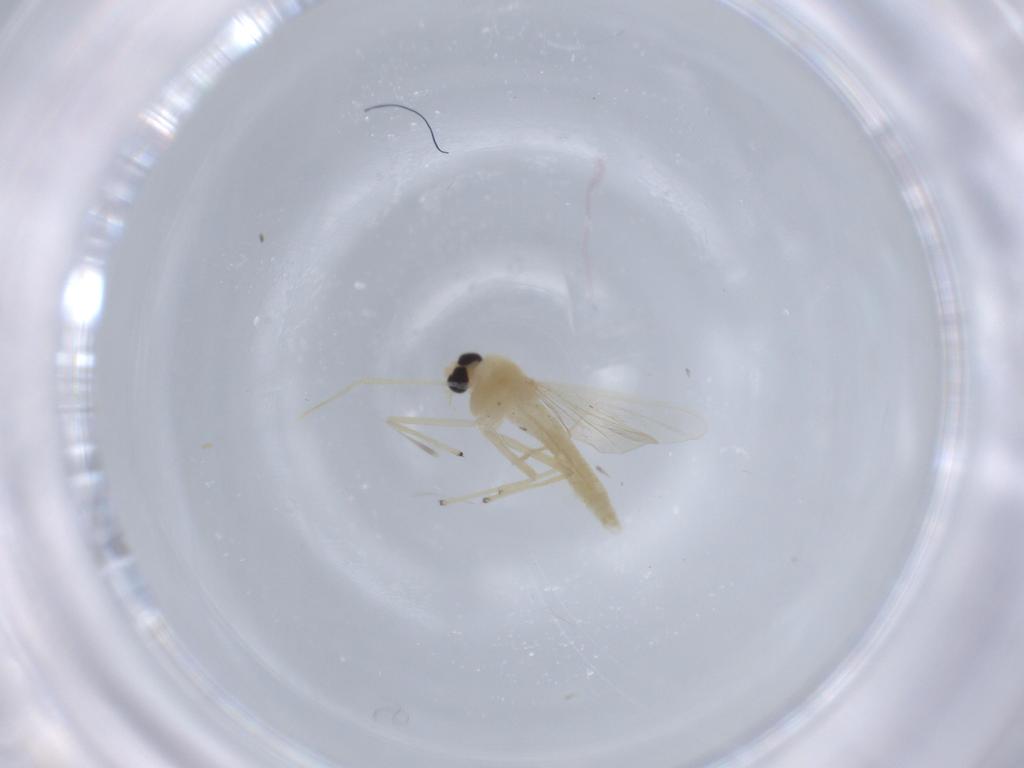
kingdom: Animalia
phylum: Arthropoda
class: Insecta
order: Diptera
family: Chironomidae
